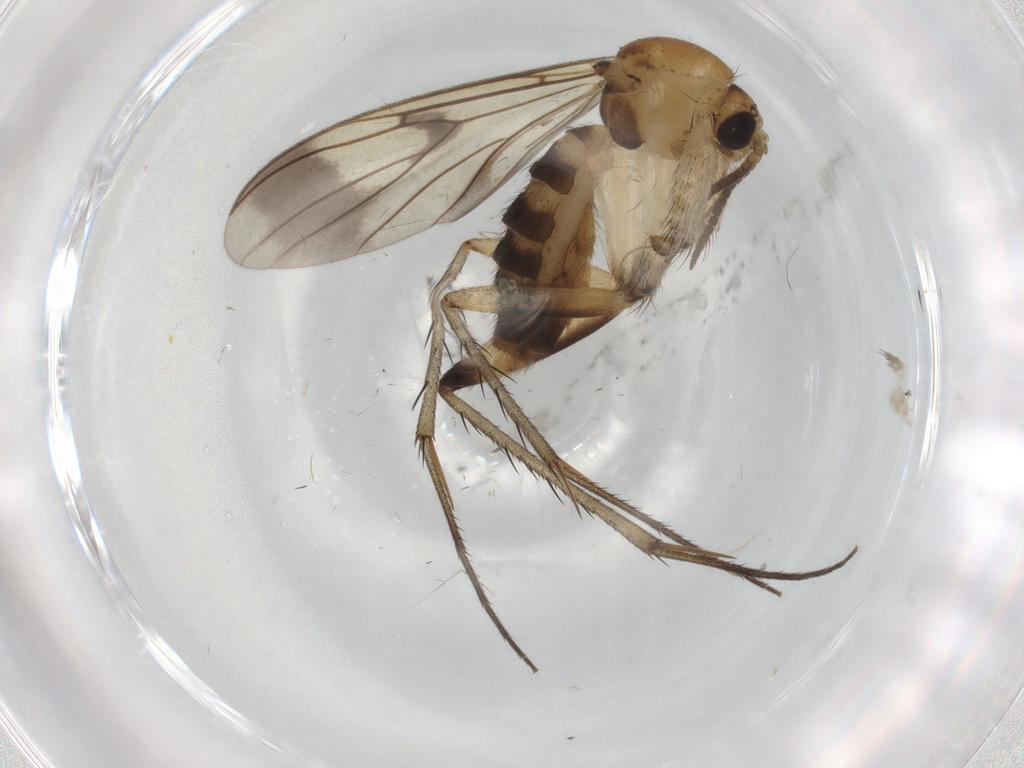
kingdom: Animalia
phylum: Arthropoda
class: Insecta
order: Diptera
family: Mycetophilidae
